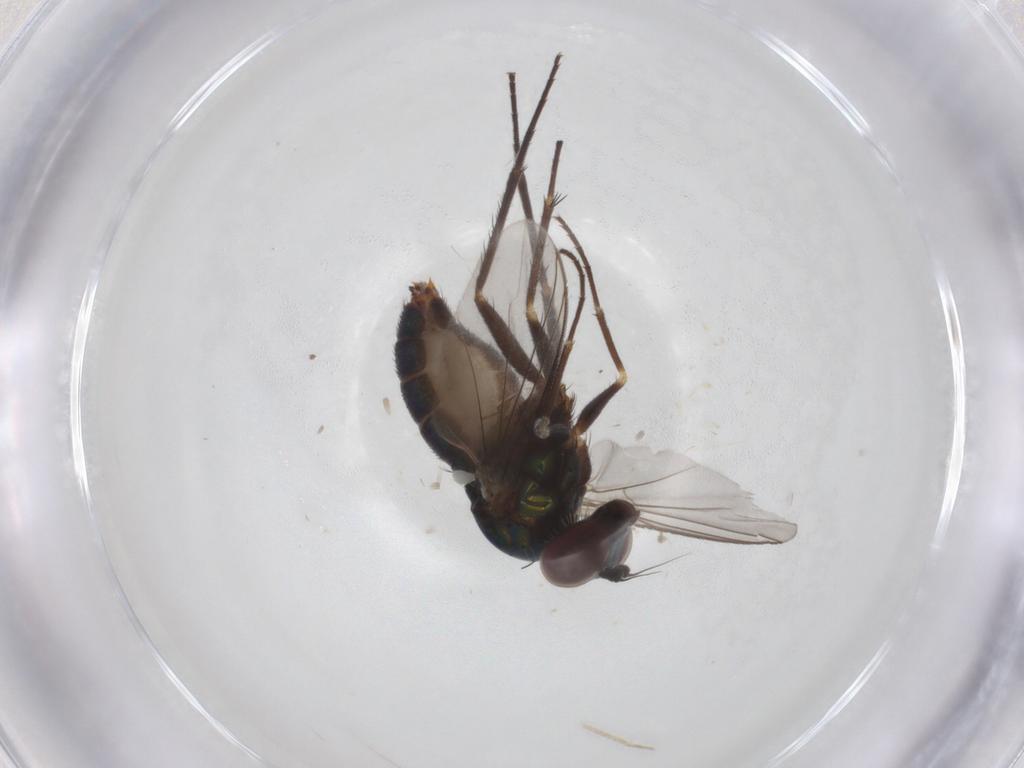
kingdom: Animalia
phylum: Arthropoda
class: Insecta
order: Diptera
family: Dolichopodidae
